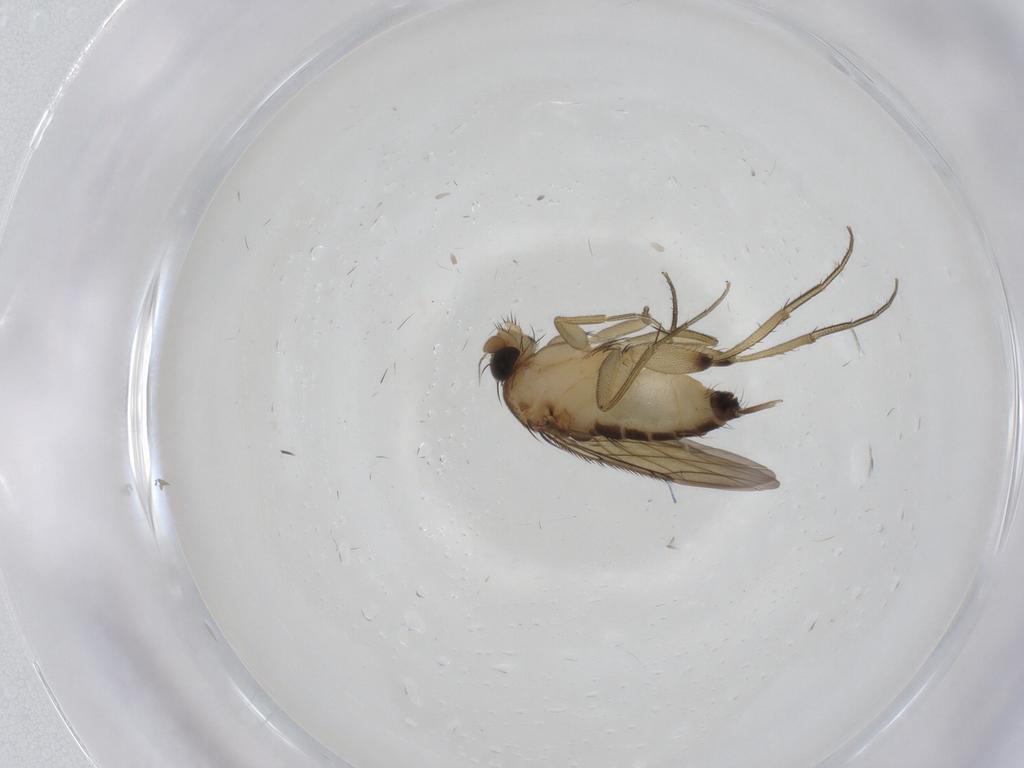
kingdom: Animalia
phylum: Arthropoda
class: Insecta
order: Diptera
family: Phoridae
